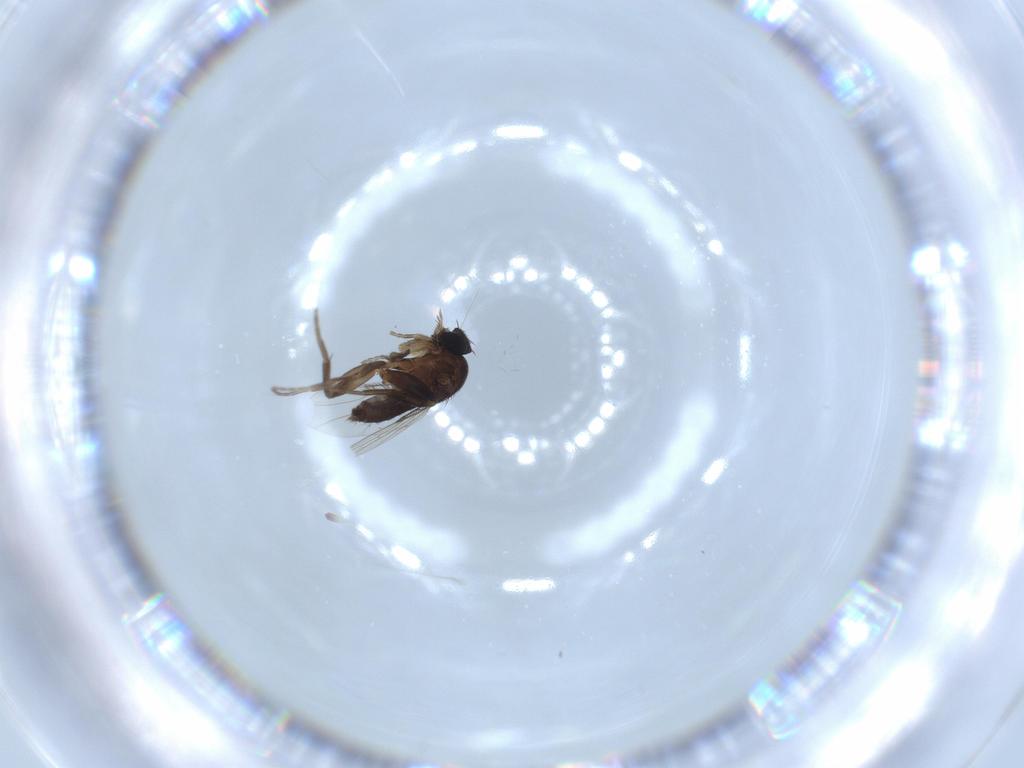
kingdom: Animalia
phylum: Arthropoda
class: Insecta
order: Diptera
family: Phoridae
